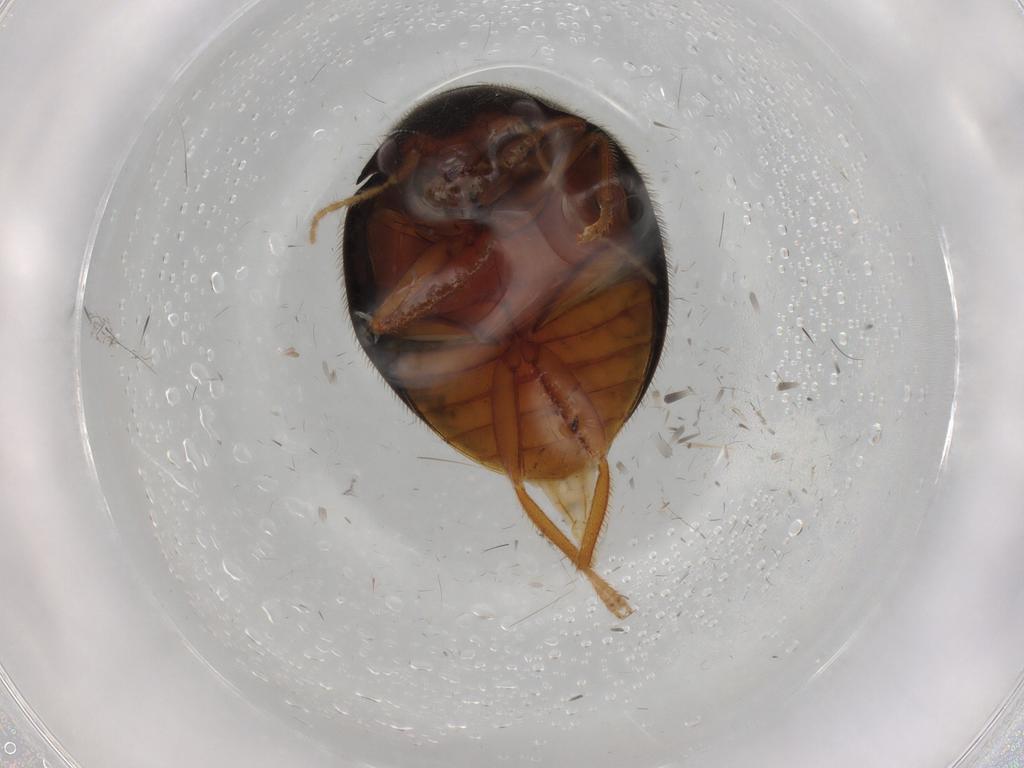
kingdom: Animalia
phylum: Arthropoda
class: Insecta
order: Coleoptera
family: Scirtidae
